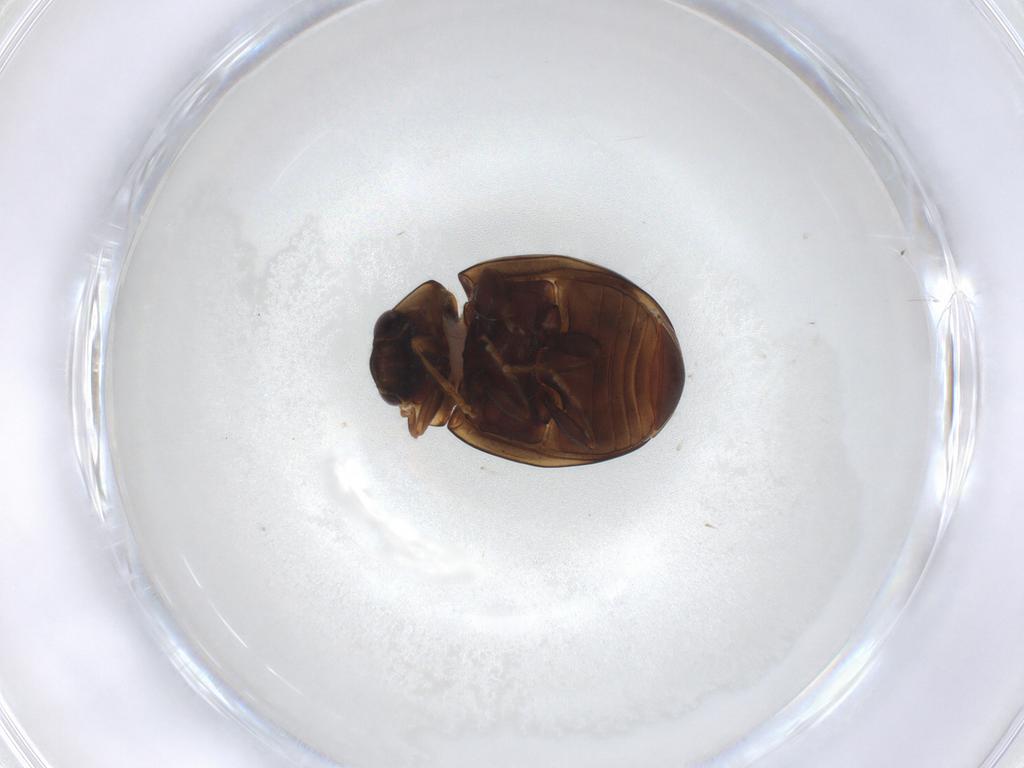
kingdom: Animalia
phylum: Arthropoda
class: Insecta
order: Coleoptera
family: Coccinellidae
